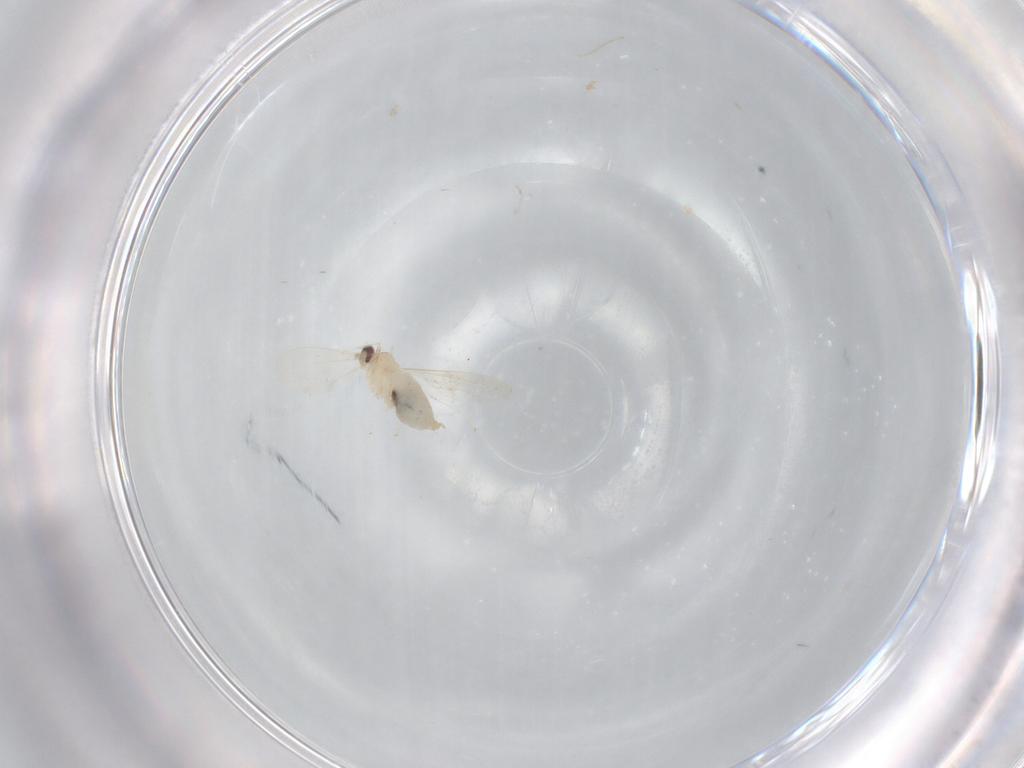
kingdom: Animalia
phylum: Arthropoda
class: Insecta
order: Diptera
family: Cecidomyiidae
